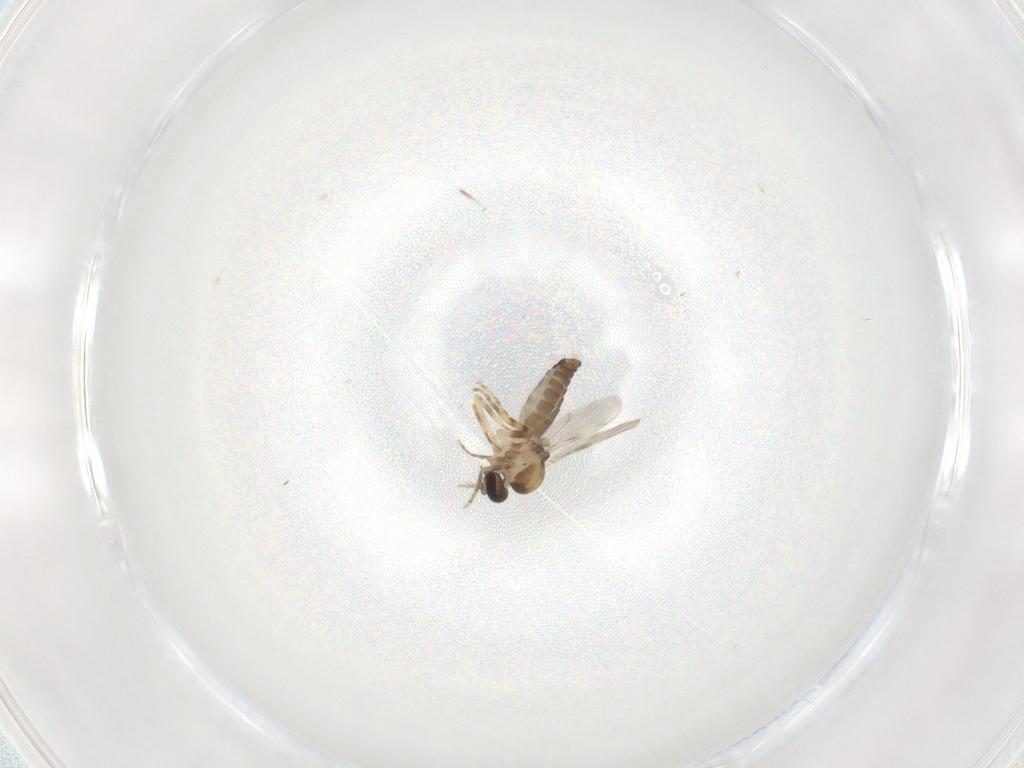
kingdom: Animalia
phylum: Arthropoda
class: Insecta
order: Diptera
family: Ceratopogonidae
